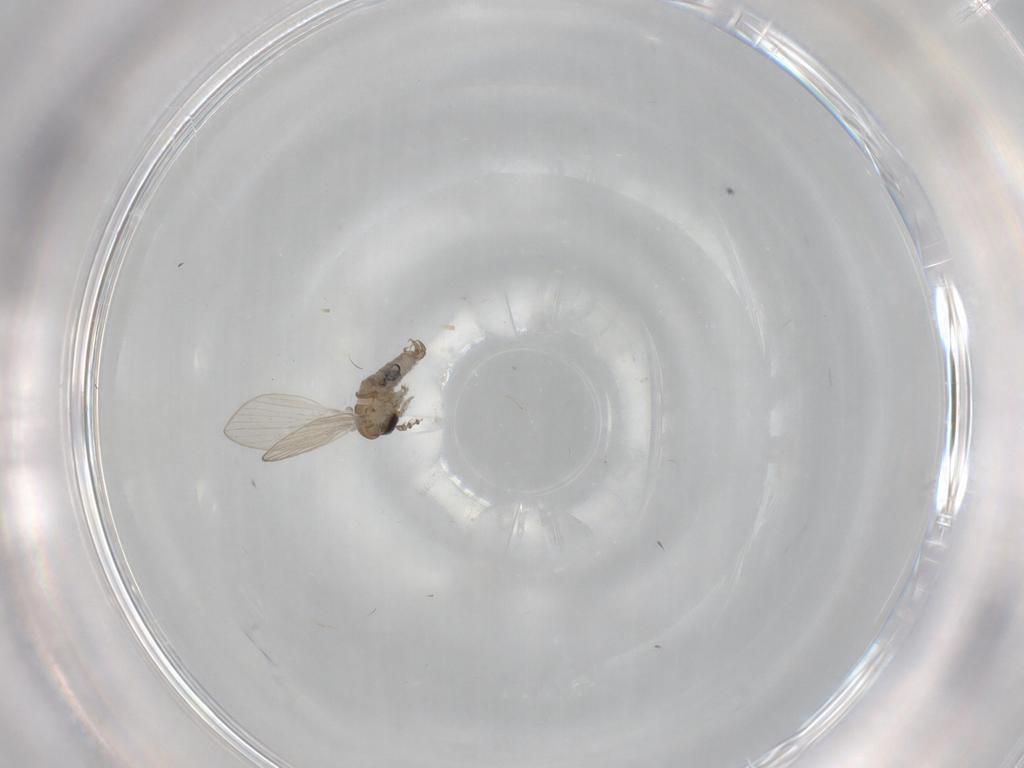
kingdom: Animalia
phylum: Arthropoda
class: Insecta
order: Diptera
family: Psychodidae
